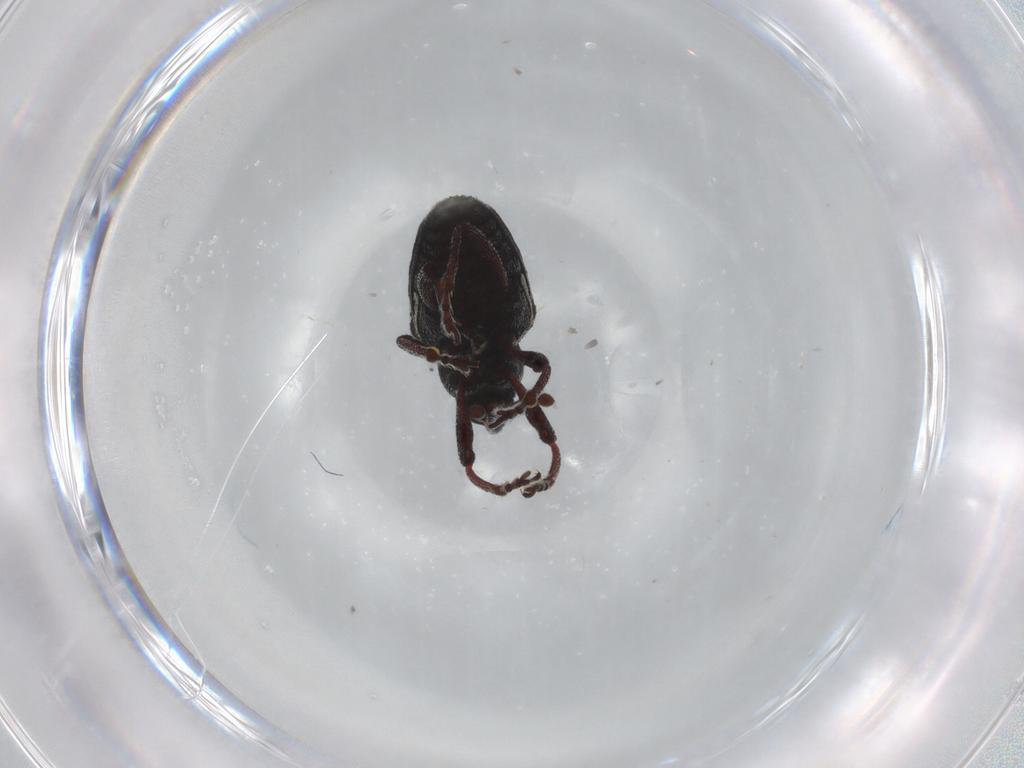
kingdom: Animalia
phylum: Arthropoda
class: Insecta
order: Coleoptera
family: Curculionidae
